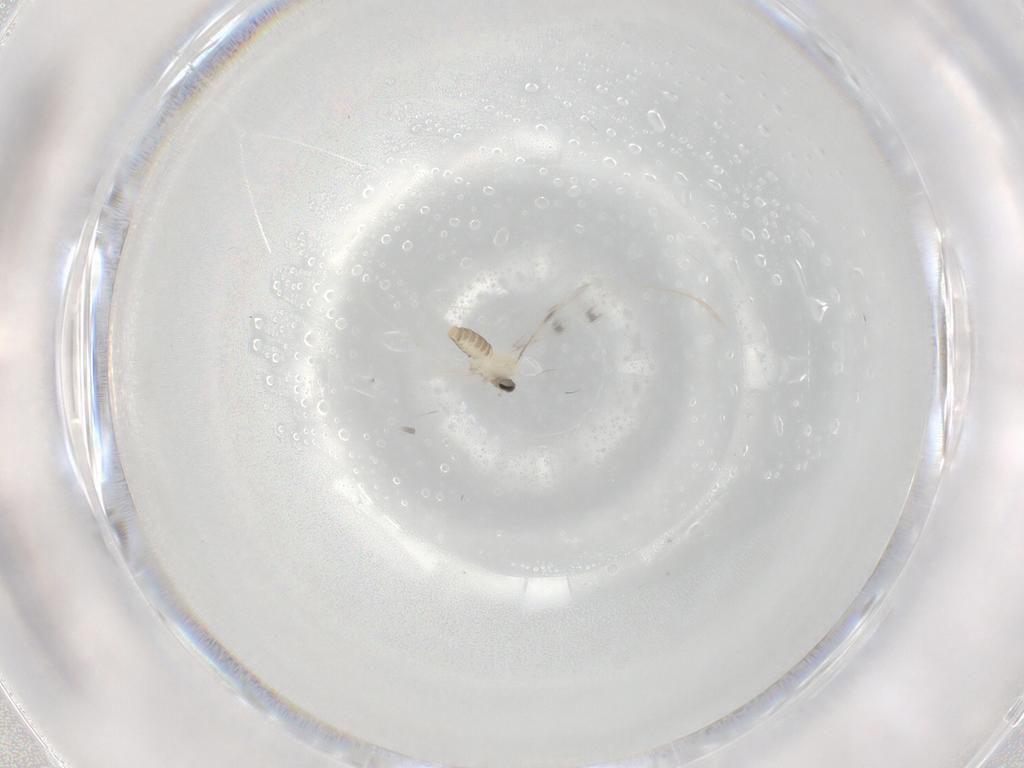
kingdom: Animalia
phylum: Arthropoda
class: Insecta
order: Diptera
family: Cecidomyiidae
